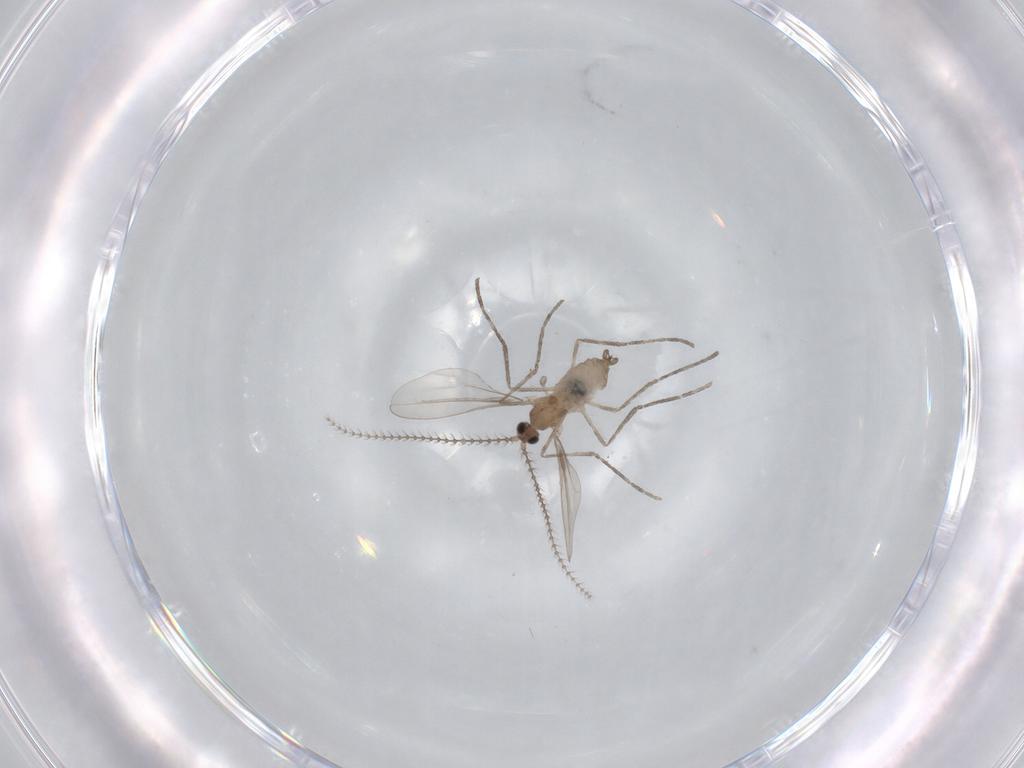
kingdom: Animalia
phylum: Arthropoda
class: Insecta
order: Diptera
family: Cecidomyiidae
